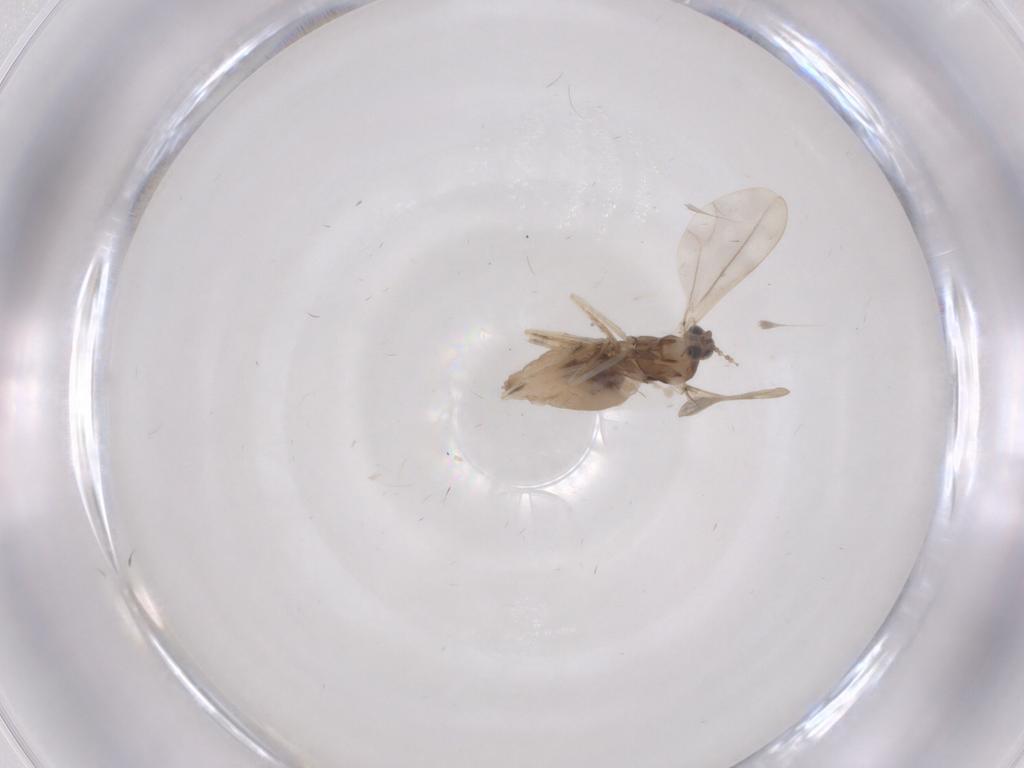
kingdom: Animalia
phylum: Arthropoda
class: Insecta
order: Diptera
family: Cecidomyiidae
